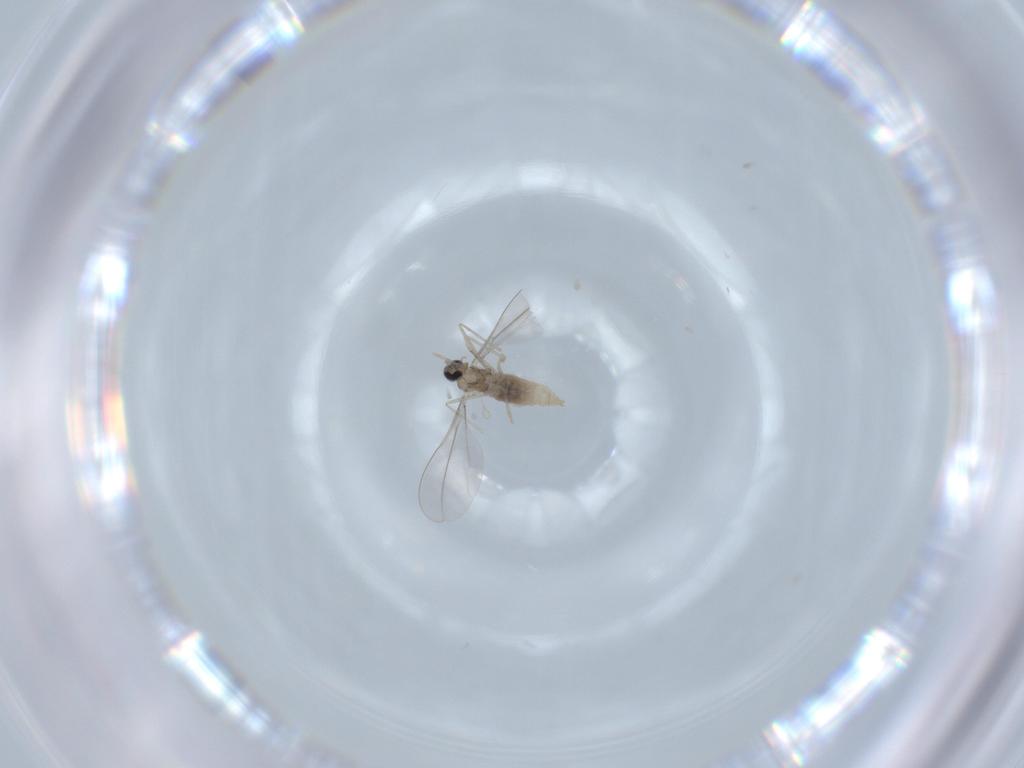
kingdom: Animalia
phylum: Arthropoda
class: Insecta
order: Diptera
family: Cecidomyiidae
